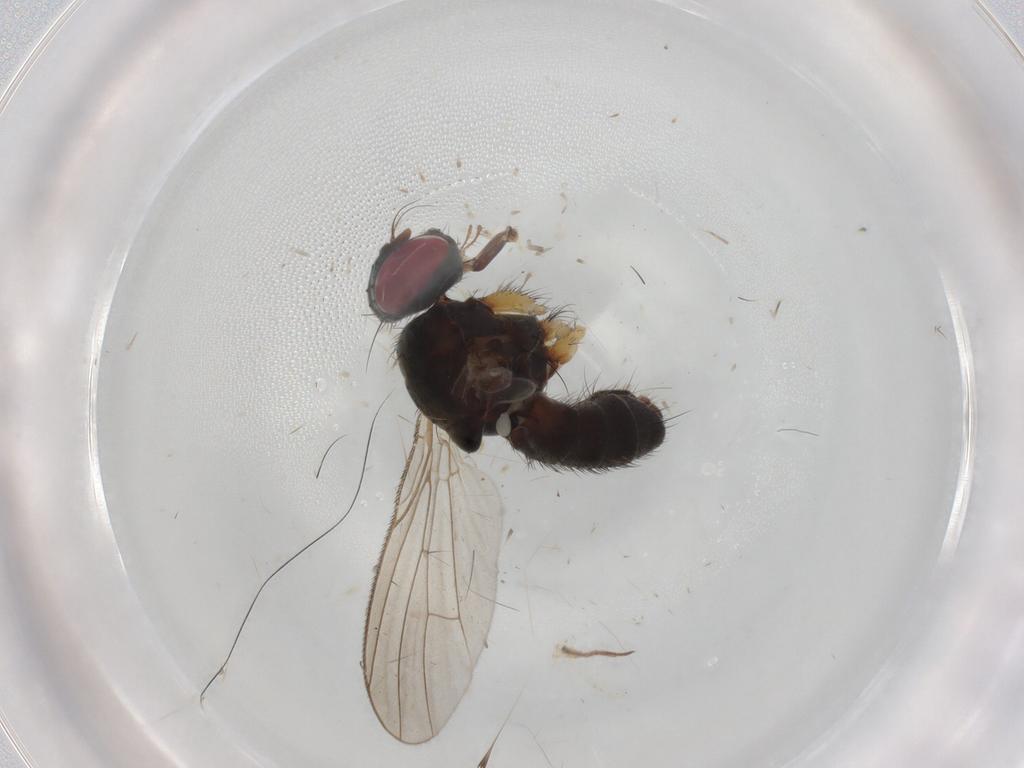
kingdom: Animalia
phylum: Arthropoda
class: Insecta
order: Diptera
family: Muscidae
